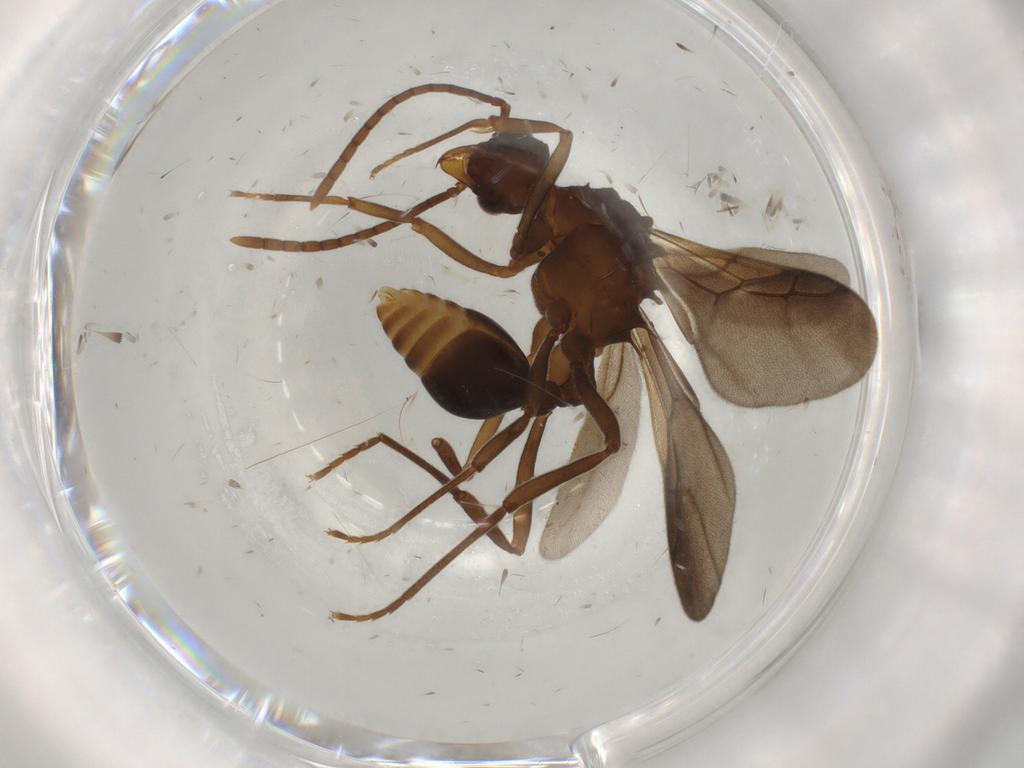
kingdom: Animalia
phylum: Arthropoda
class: Insecta
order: Hymenoptera
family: Formicidae
